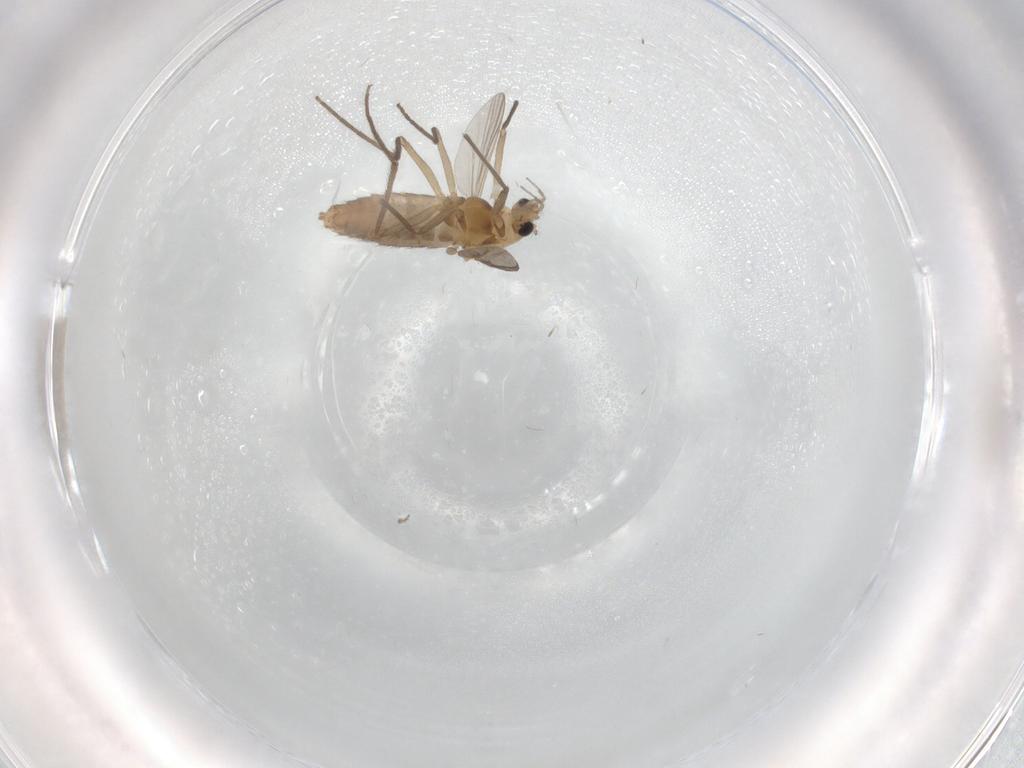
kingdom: Animalia
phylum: Arthropoda
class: Insecta
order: Diptera
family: Chironomidae
